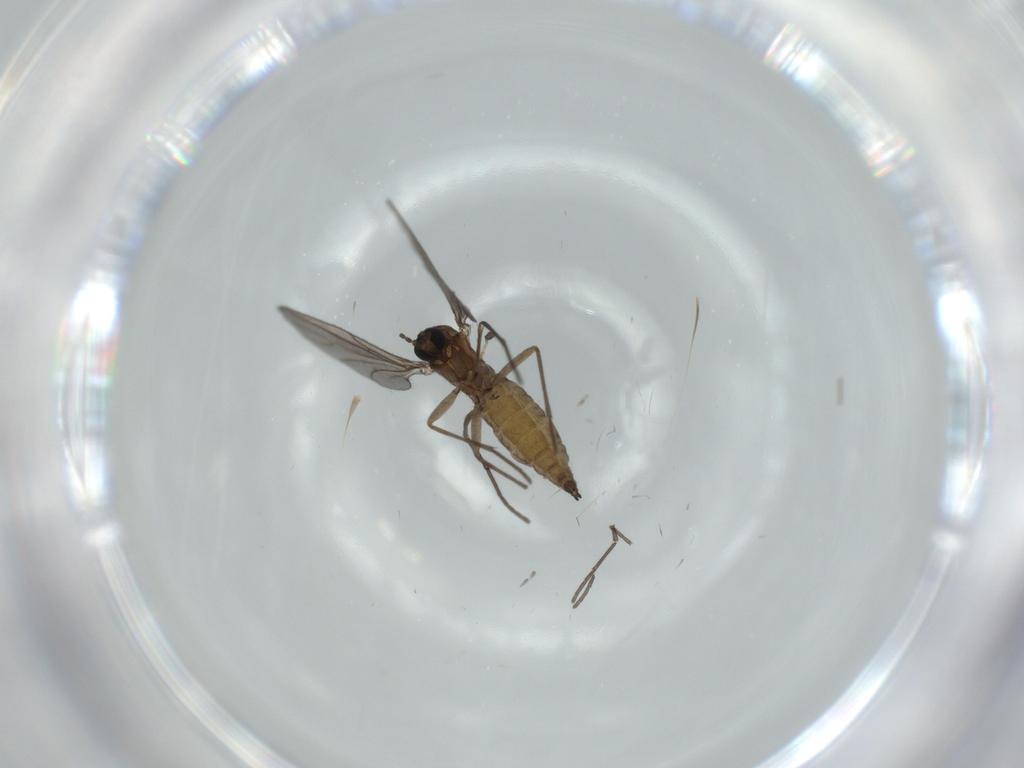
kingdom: Animalia
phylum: Arthropoda
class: Insecta
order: Diptera
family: Sciaridae
